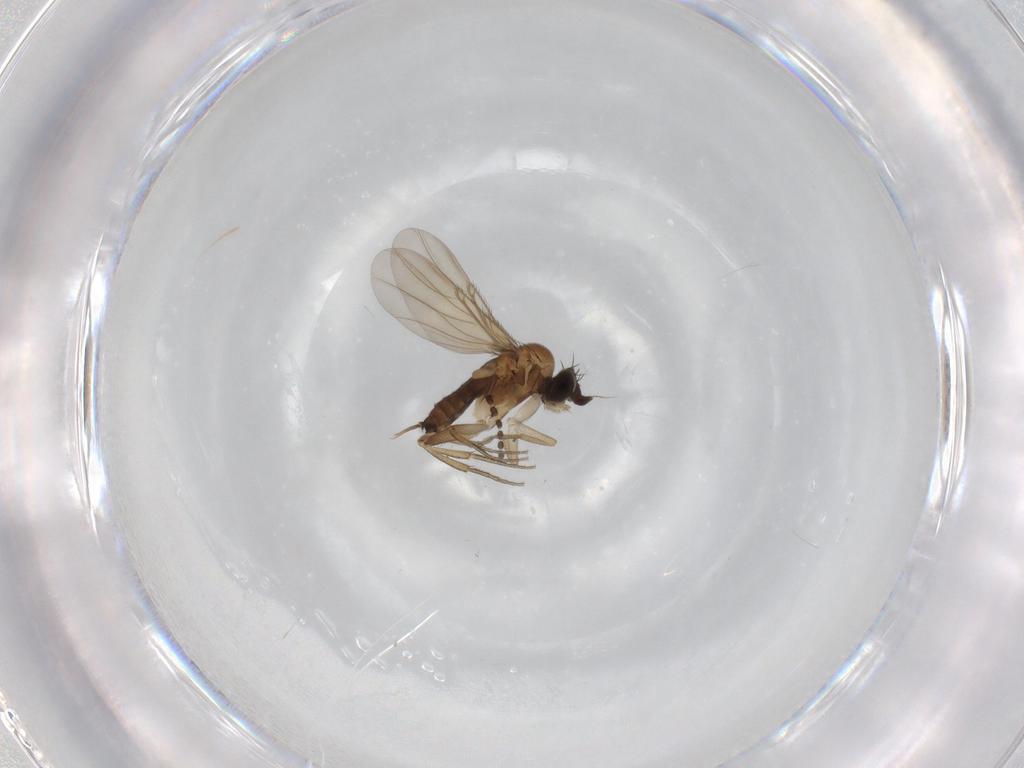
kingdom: Animalia
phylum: Arthropoda
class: Insecta
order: Diptera
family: Phoridae
